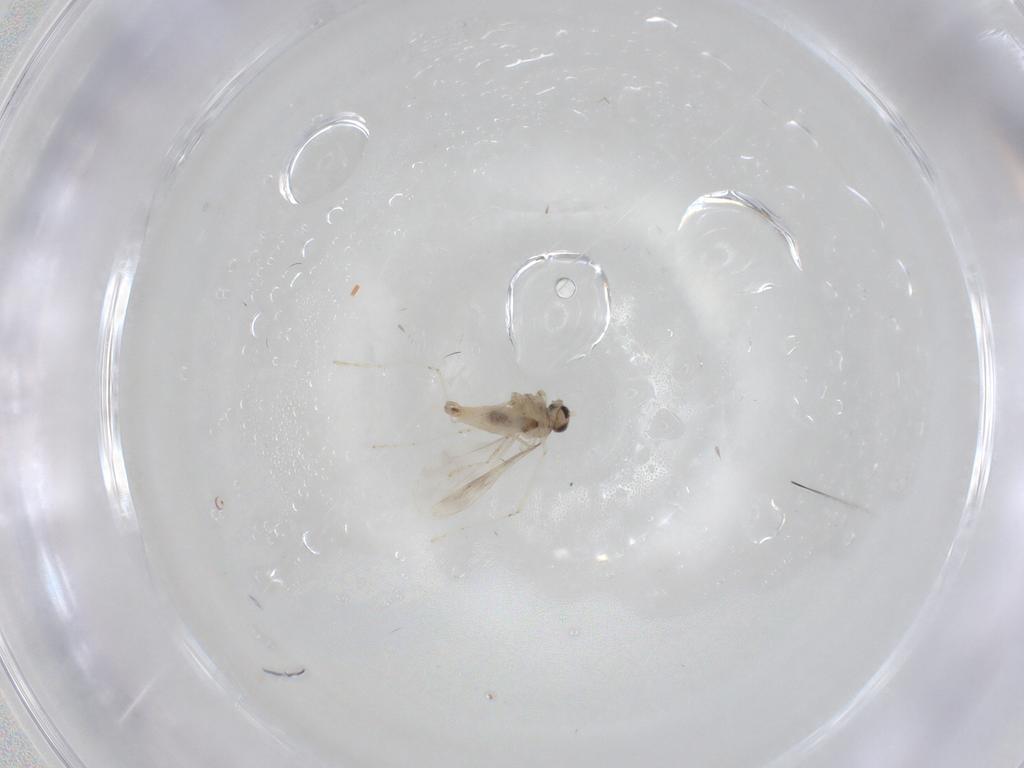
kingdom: Animalia
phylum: Arthropoda
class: Insecta
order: Diptera
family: Cecidomyiidae
